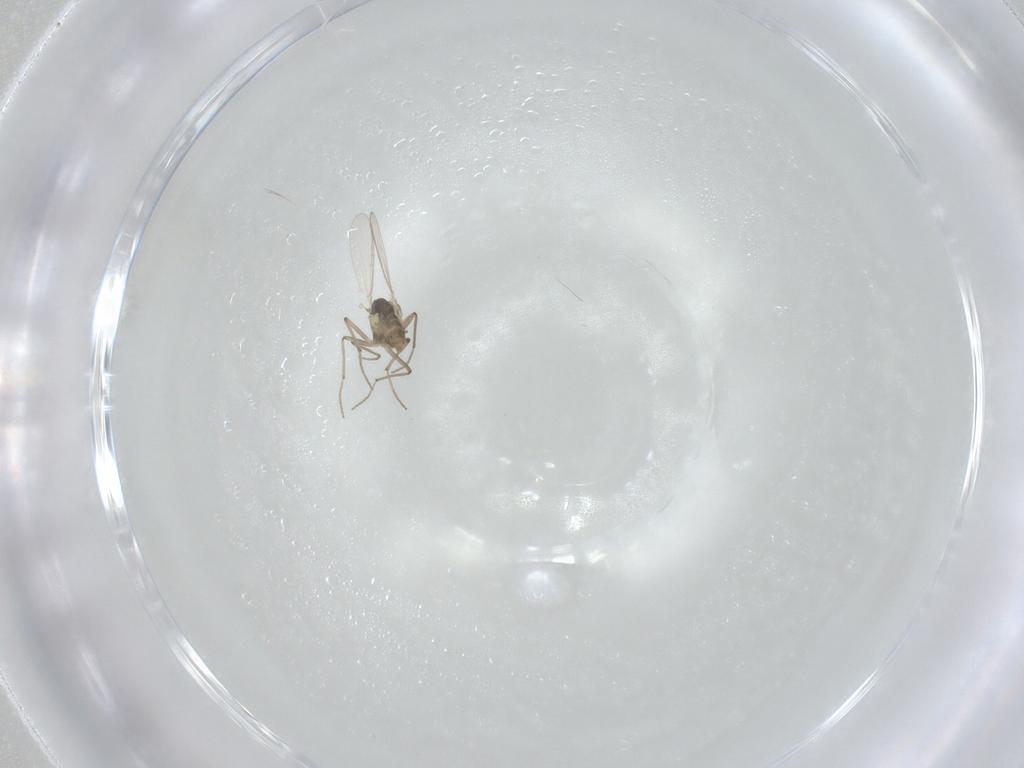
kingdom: Animalia
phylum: Arthropoda
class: Insecta
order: Diptera
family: Chironomidae
